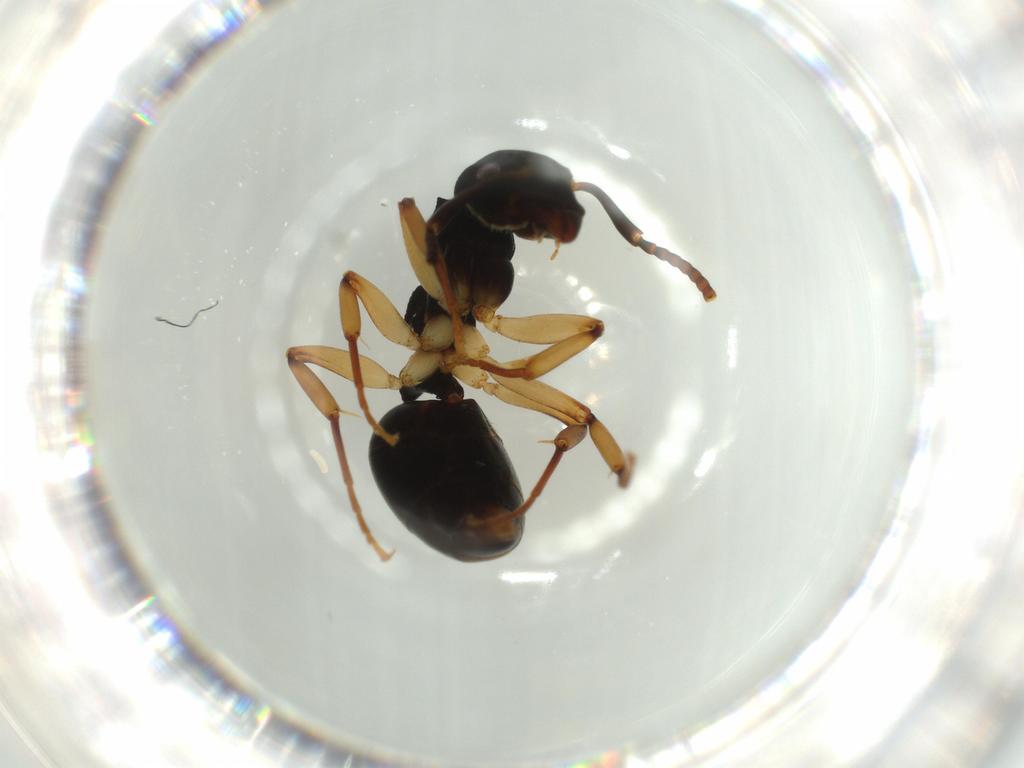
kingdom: Animalia
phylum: Arthropoda
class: Insecta
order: Hymenoptera
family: Formicidae
